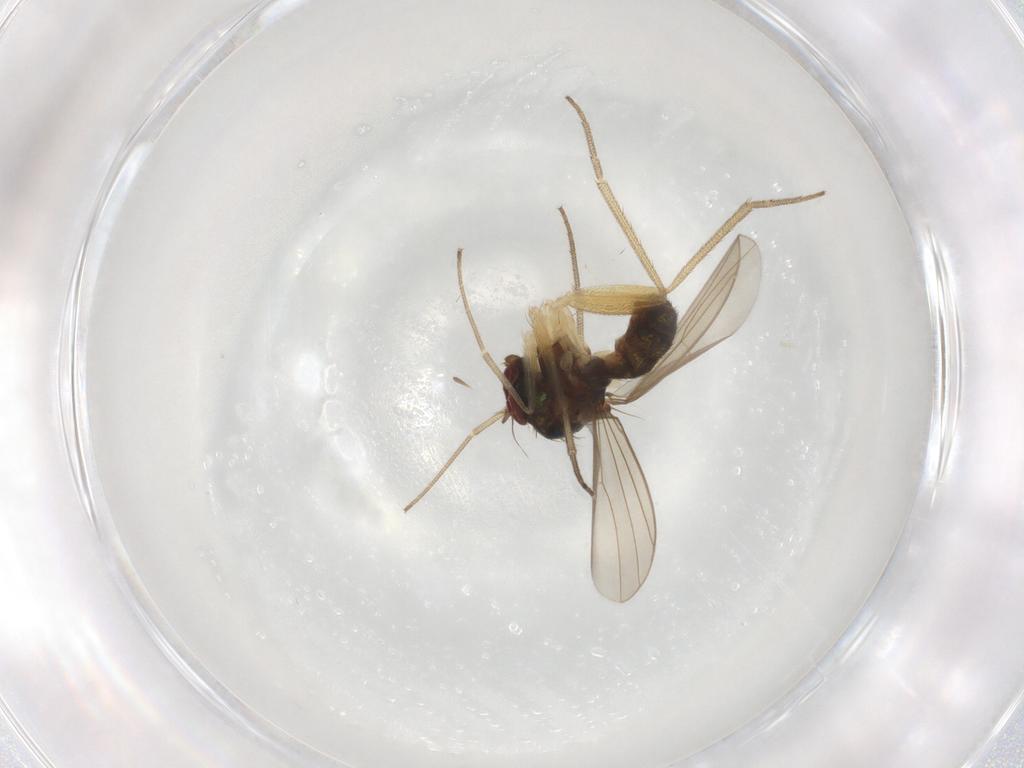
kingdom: Animalia
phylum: Arthropoda
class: Insecta
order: Diptera
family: Dolichopodidae
